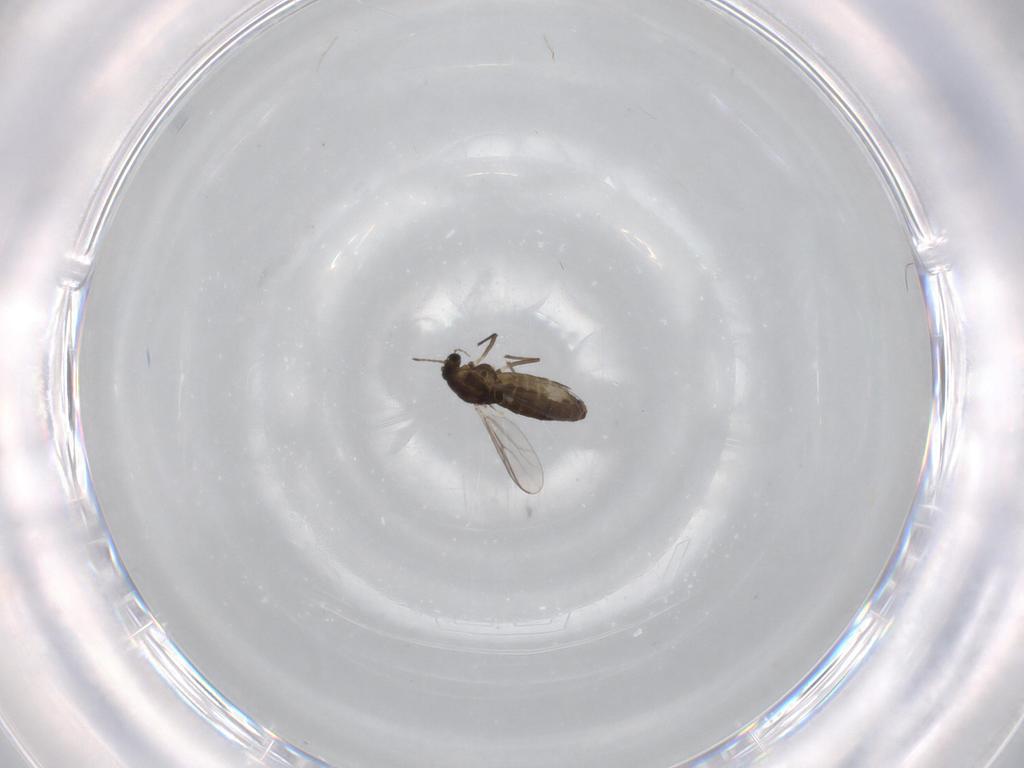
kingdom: Animalia
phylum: Arthropoda
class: Insecta
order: Diptera
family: Chironomidae
